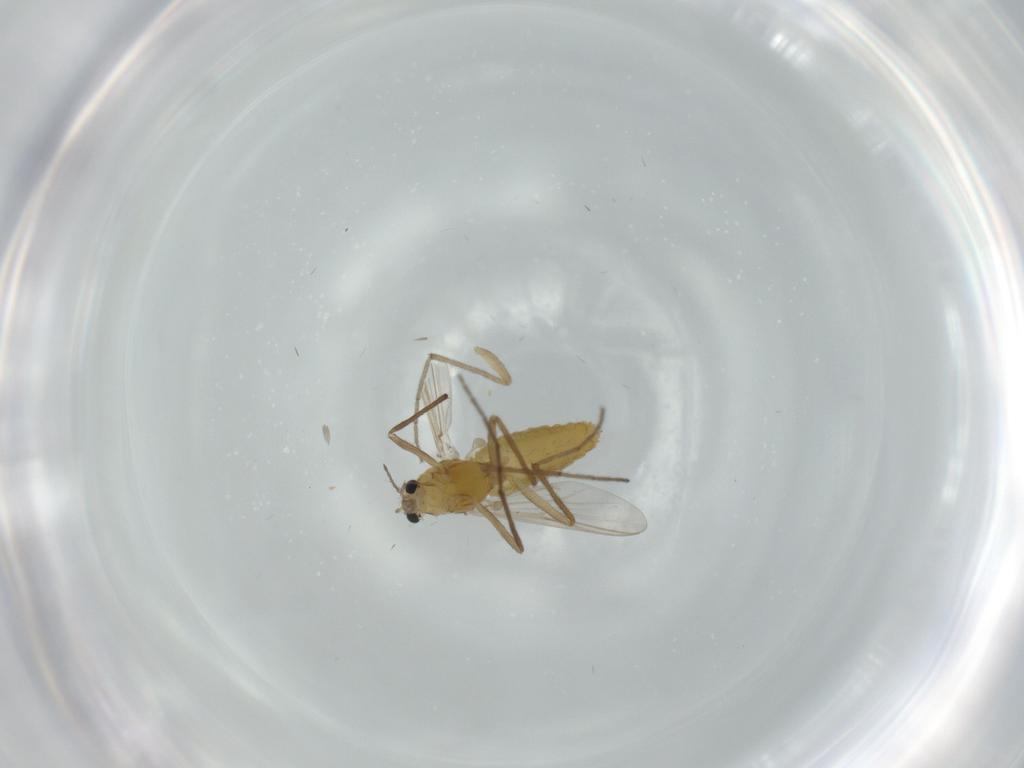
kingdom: Animalia
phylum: Arthropoda
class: Insecta
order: Diptera
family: Chironomidae
